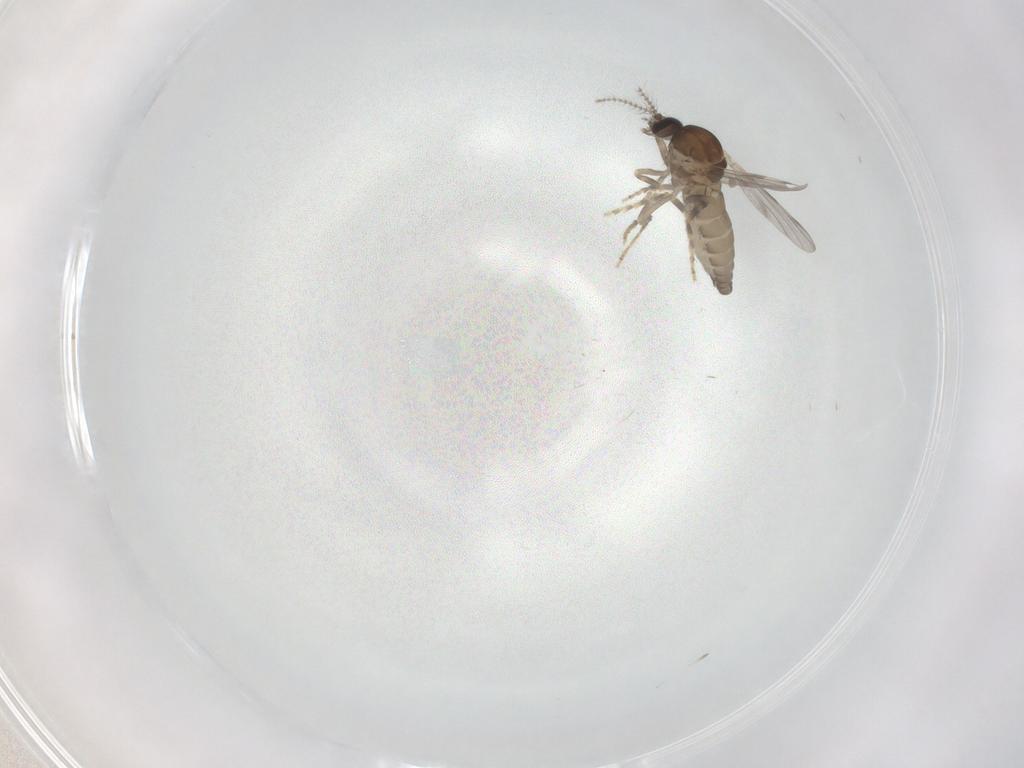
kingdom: Animalia
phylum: Arthropoda
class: Insecta
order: Diptera
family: Ceratopogonidae
